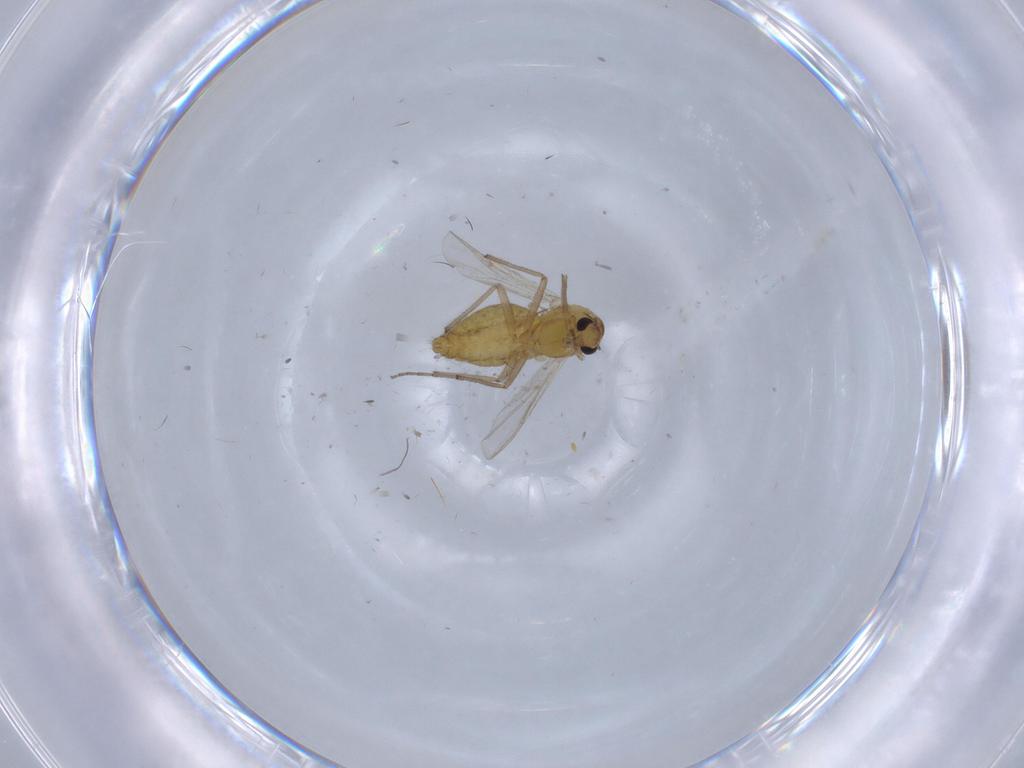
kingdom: Animalia
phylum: Arthropoda
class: Insecta
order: Diptera
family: Chironomidae
